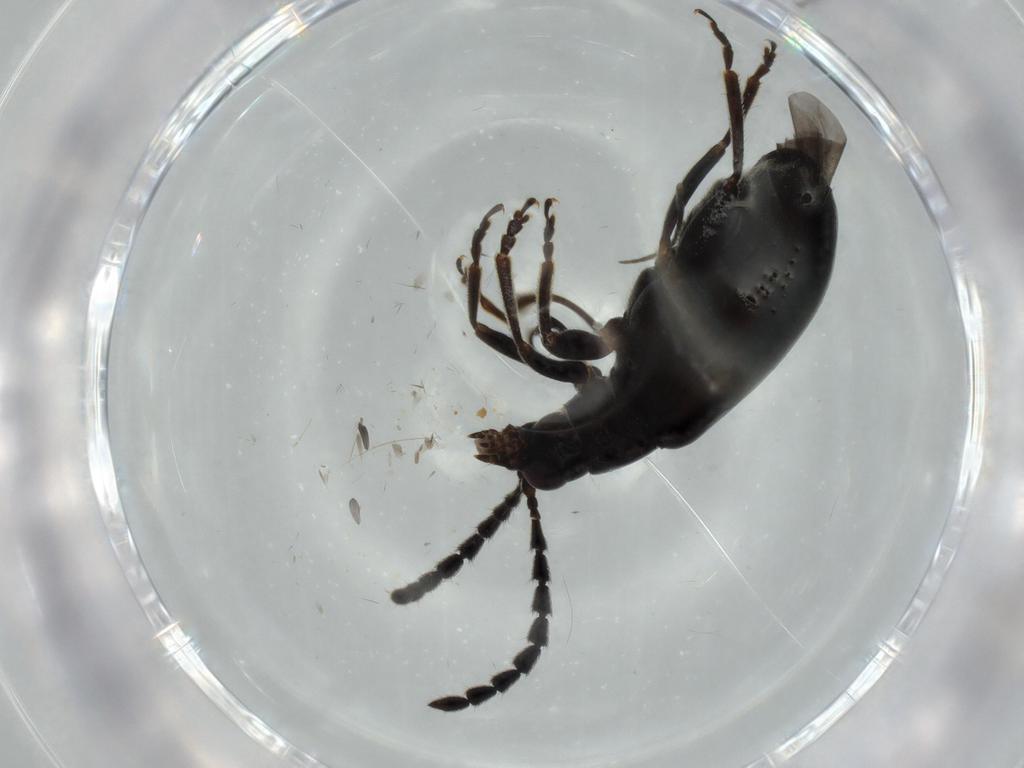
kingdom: Animalia
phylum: Arthropoda
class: Insecta
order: Coleoptera
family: Chrysomelidae
